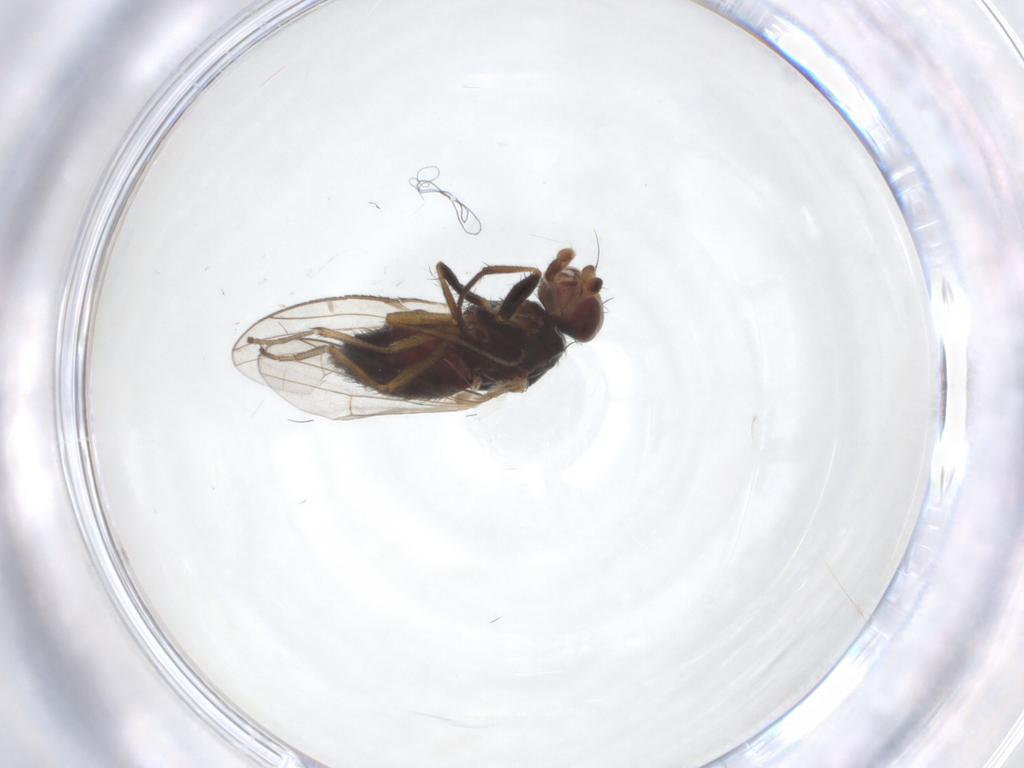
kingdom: Animalia
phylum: Arthropoda
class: Insecta
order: Diptera
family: Heleomyzidae
